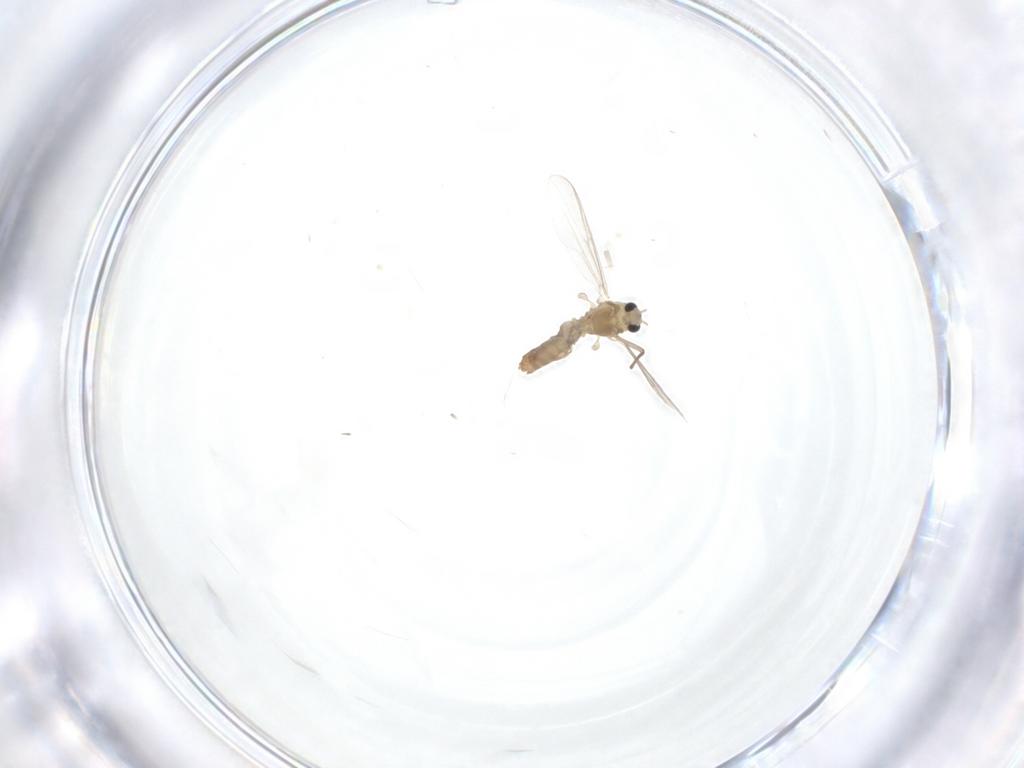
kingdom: Animalia
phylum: Arthropoda
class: Insecta
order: Diptera
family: Chironomidae
